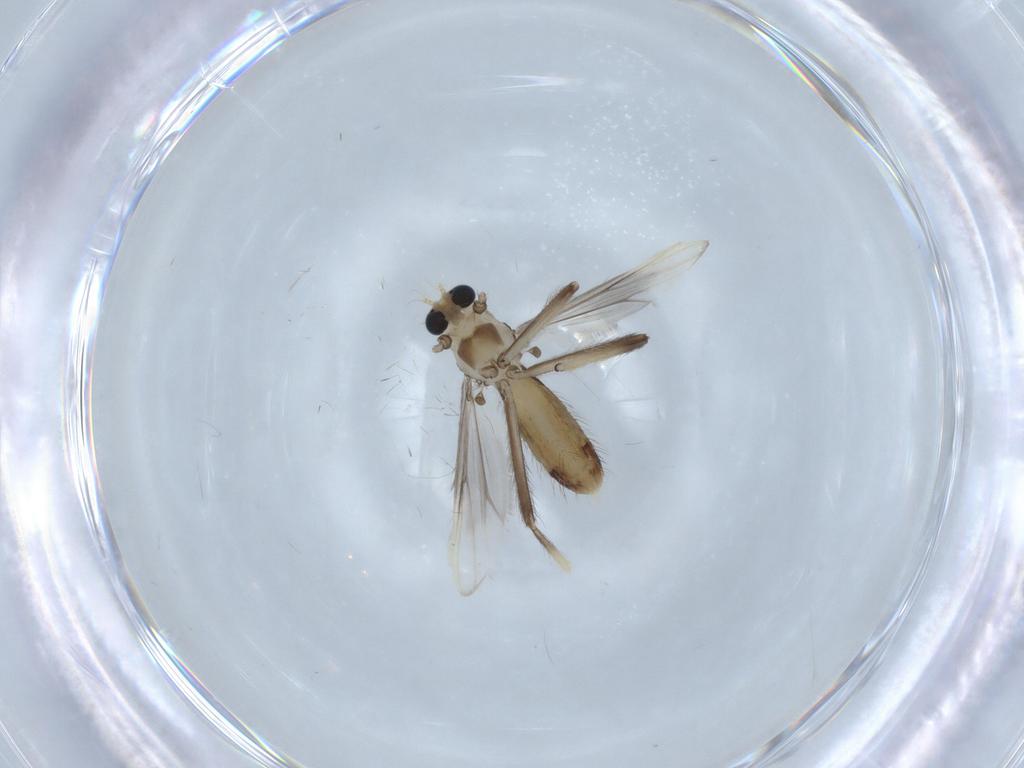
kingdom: Animalia
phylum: Arthropoda
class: Insecta
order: Diptera
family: Chironomidae
